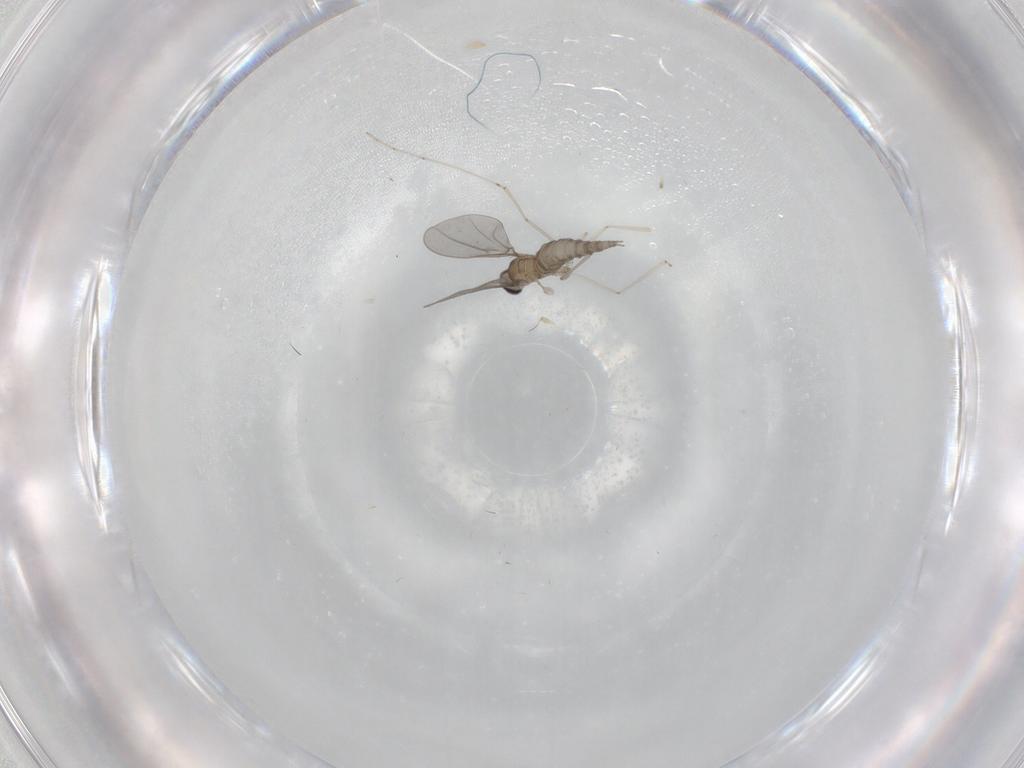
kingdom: Animalia
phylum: Arthropoda
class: Insecta
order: Diptera
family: Cecidomyiidae
